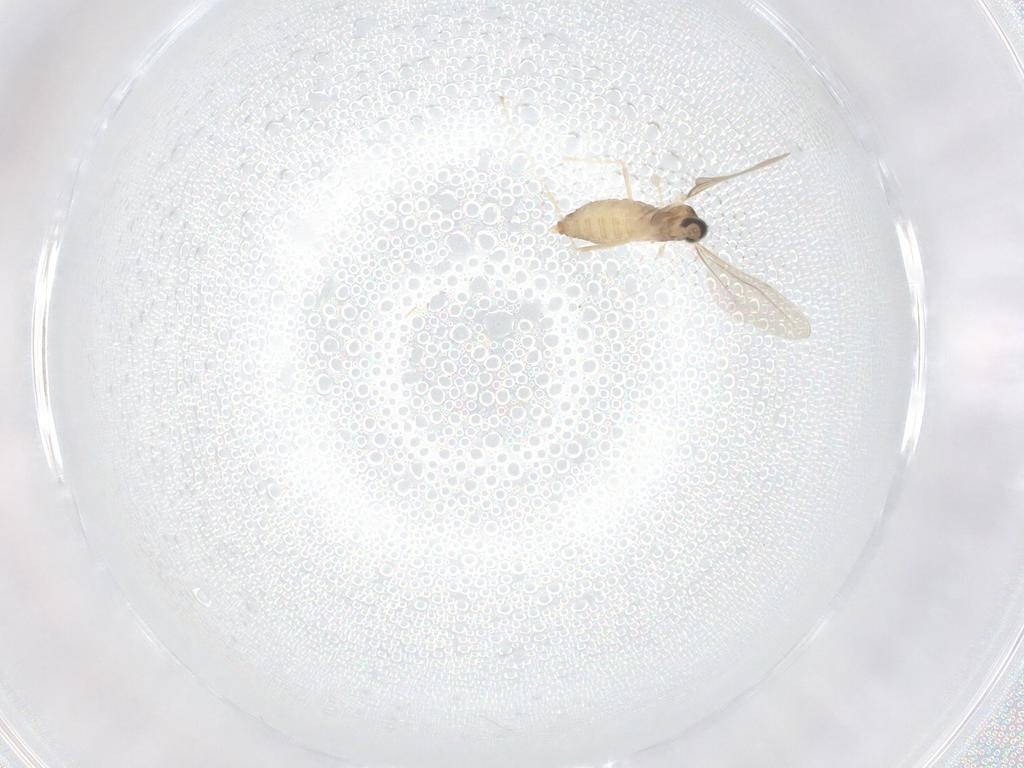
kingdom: Animalia
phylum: Arthropoda
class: Insecta
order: Diptera
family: Cecidomyiidae
